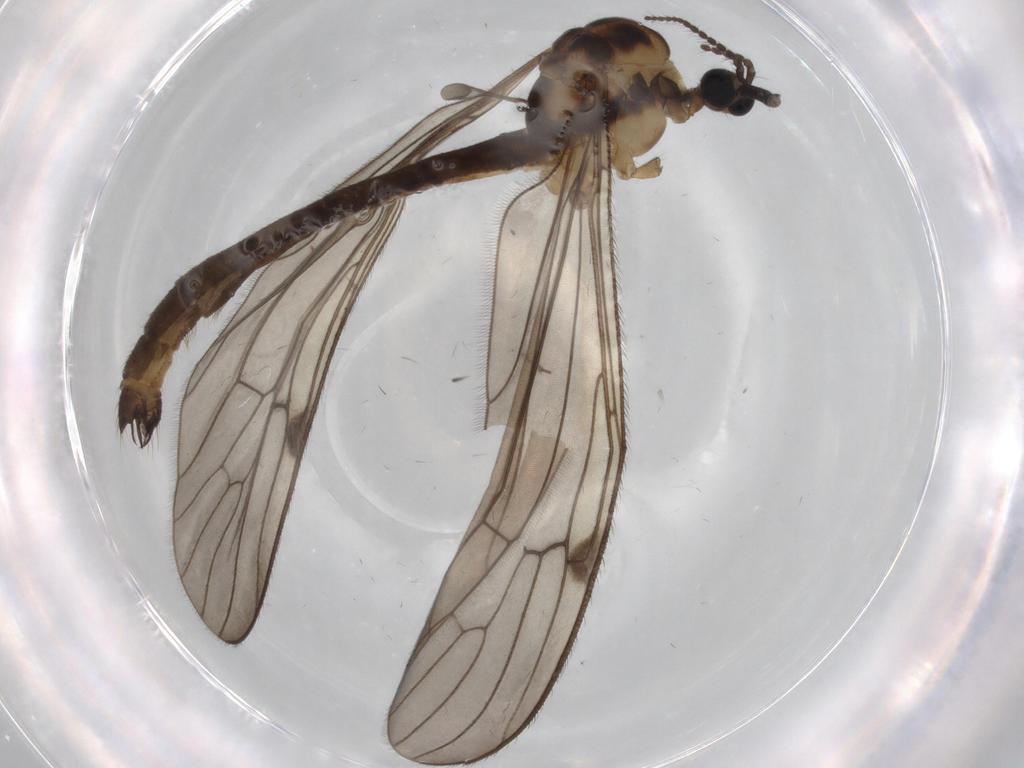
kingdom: Animalia
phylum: Arthropoda
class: Insecta
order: Diptera
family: Limoniidae
